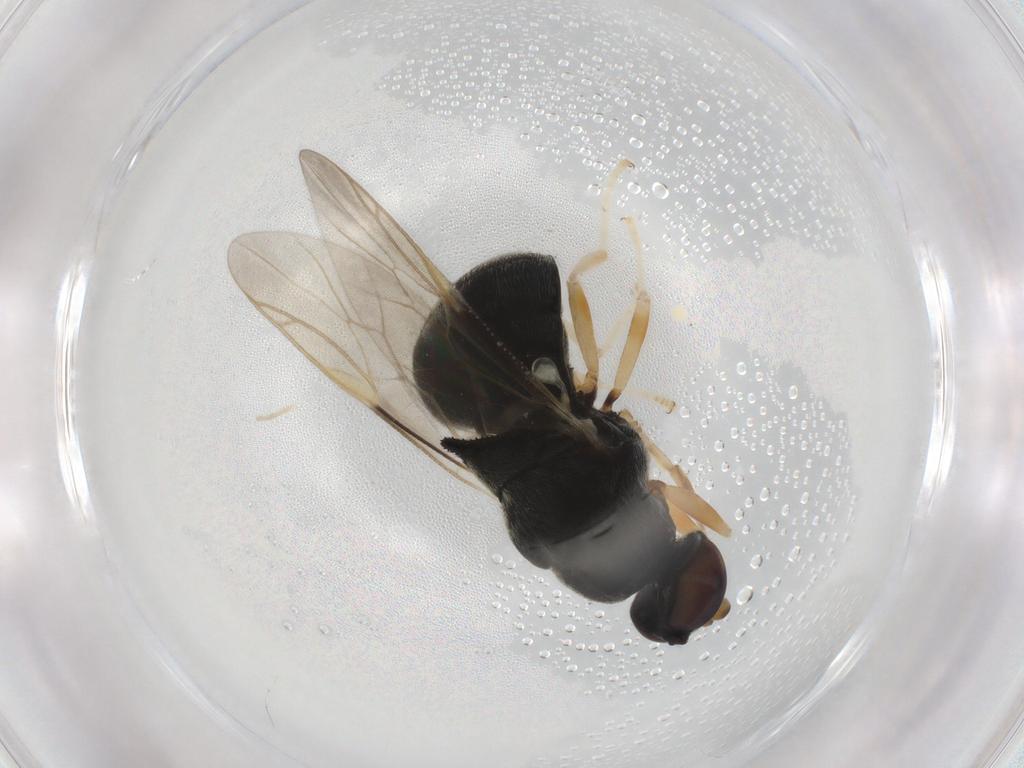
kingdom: Animalia
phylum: Arthropoda
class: Insecta
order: Diptera
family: Stratiomyidae
